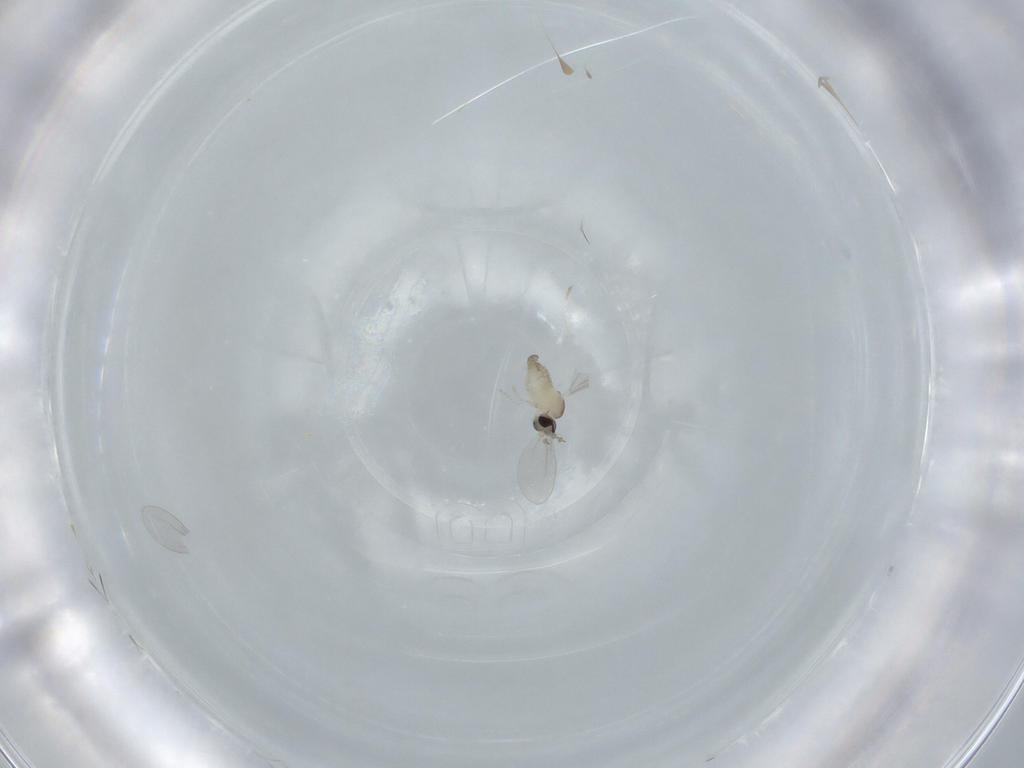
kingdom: Animalia
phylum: Arthropoda
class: Insecta
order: Diptera
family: Cecidomyiidae
